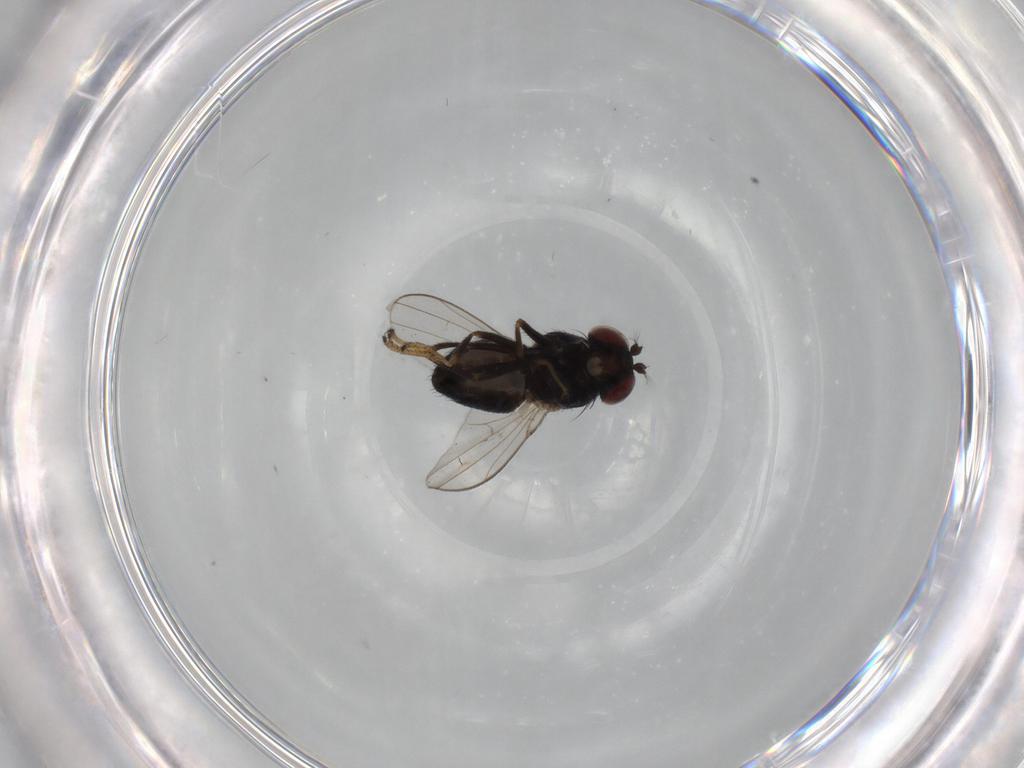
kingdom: Animalia
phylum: Arthropoda
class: Insecta
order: Diptera
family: Ephydridae
